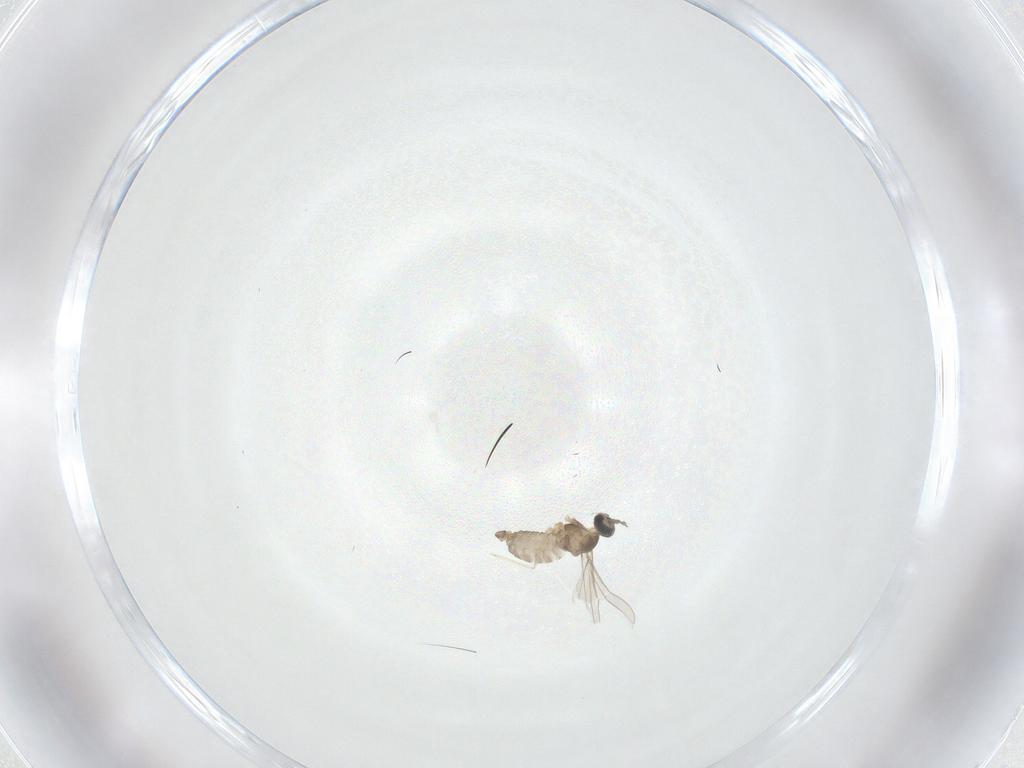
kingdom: Animalia
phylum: Arthropoda
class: Insecta
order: Diptera
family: Cecidomyiidae
